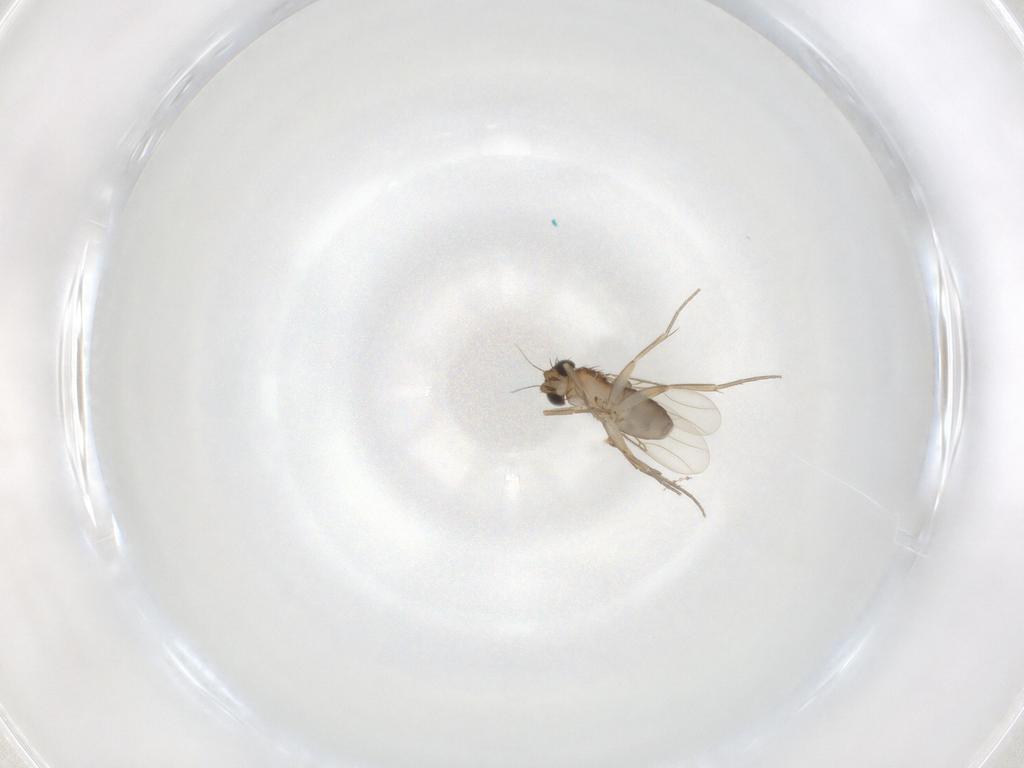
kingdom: Animalia
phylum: Arthropoda
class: Insecta
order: Diptera
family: Phoridae
